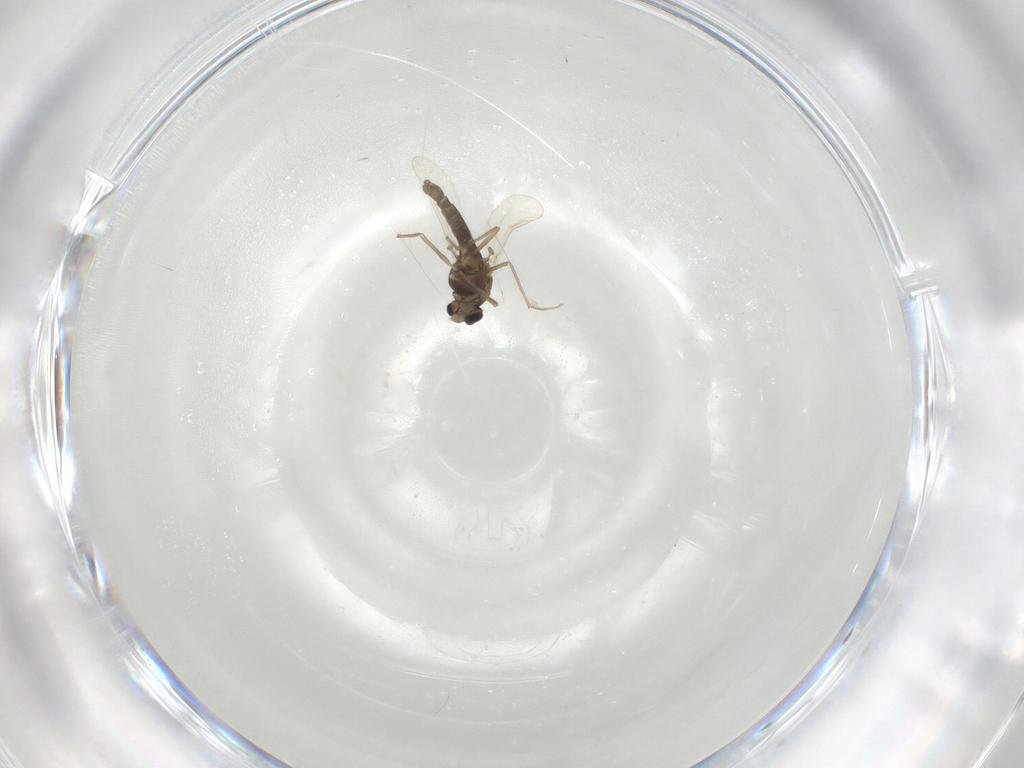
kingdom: Animalia
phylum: Arthropoda
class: Insecta
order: Diptera
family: Chironomidae
